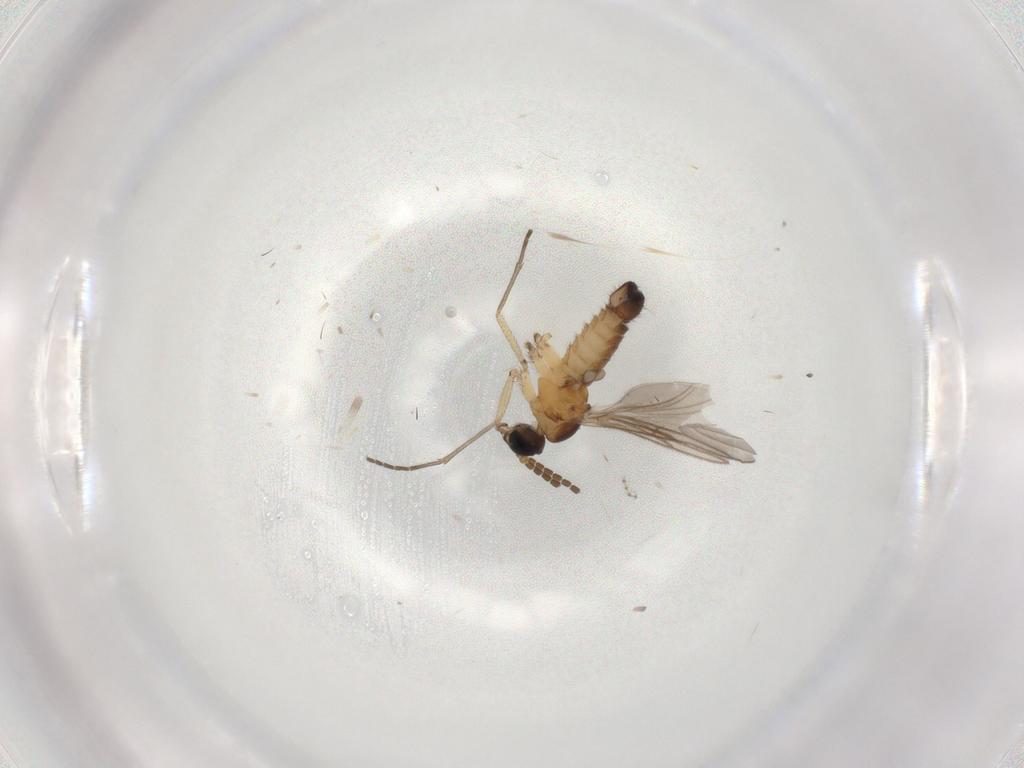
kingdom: Animalia
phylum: Arthropoda
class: Insecta
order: Diptera
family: Sciaridae
